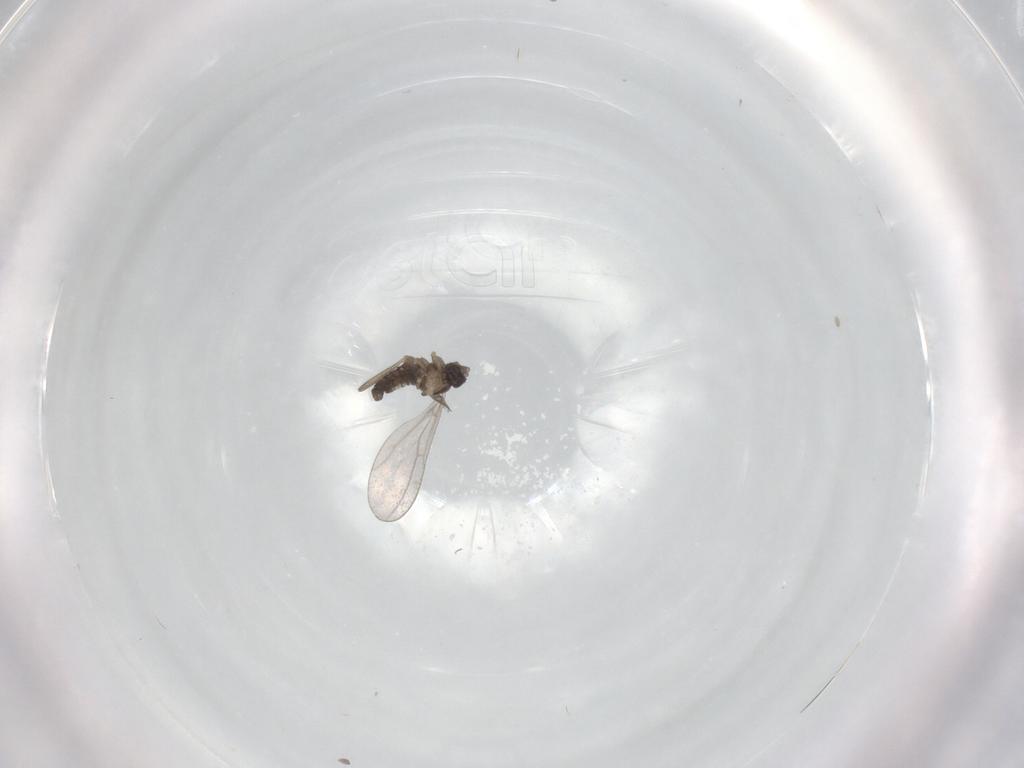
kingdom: Animalia
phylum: Arthropoda
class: Insecta
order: Diptera
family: Cecidomyiidae
